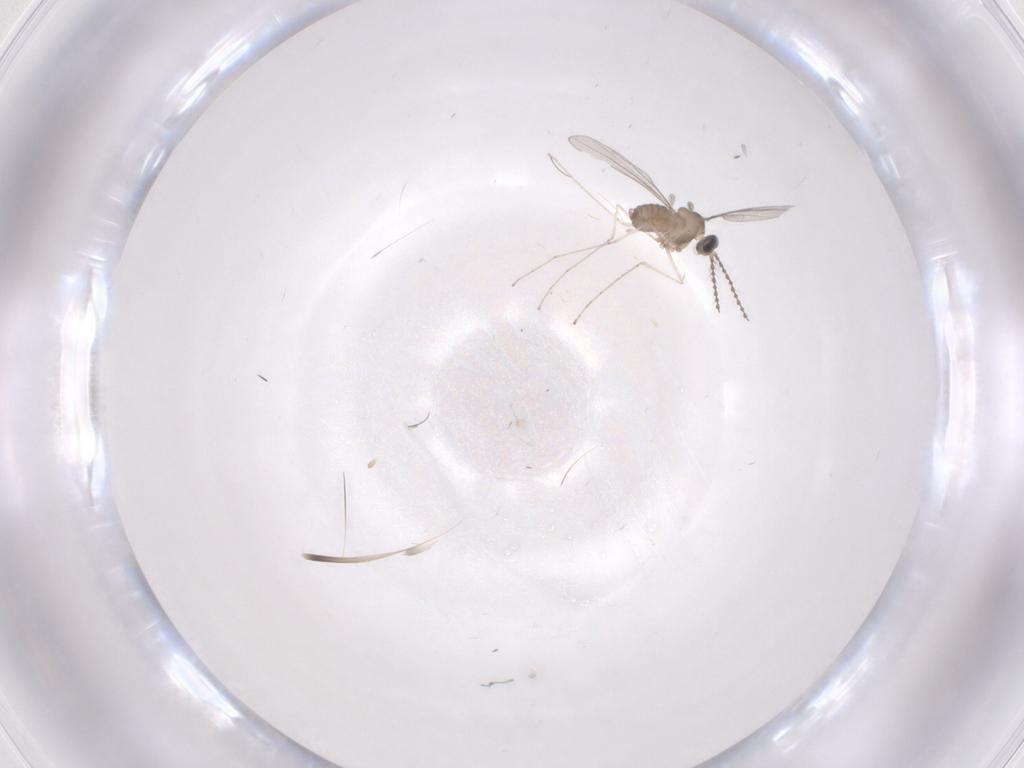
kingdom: Animalia
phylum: Arthropoda
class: Insecta
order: Diptera
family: Cecidomyiidae
